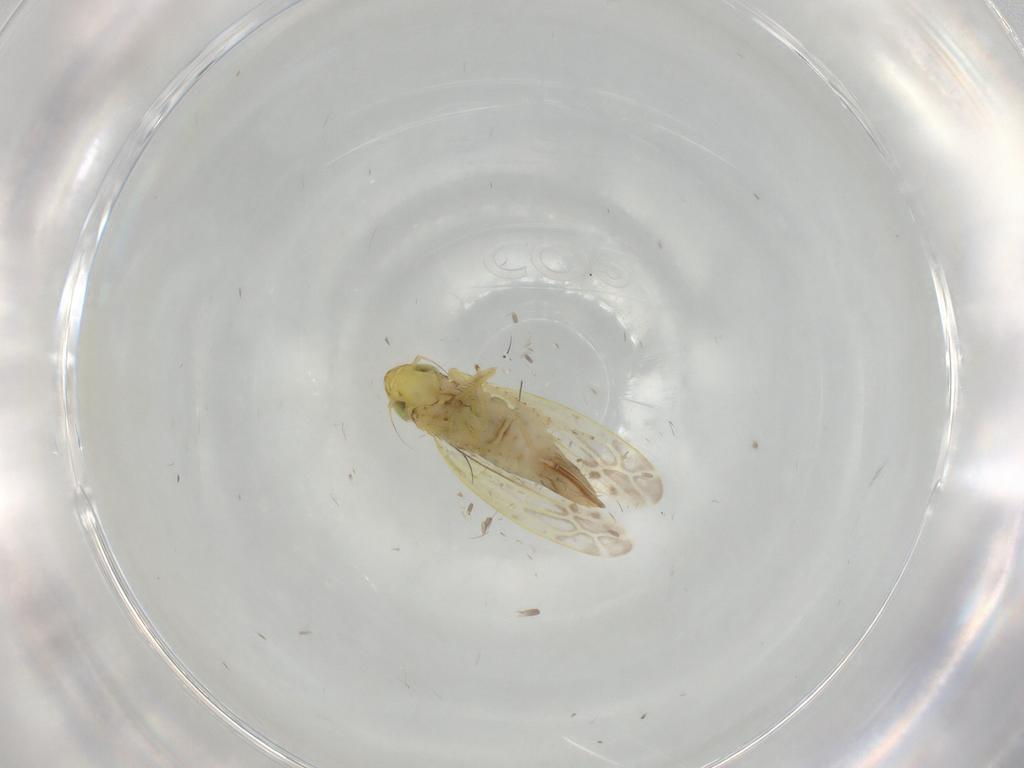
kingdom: Animalia
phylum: Arthropoda
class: Insecta
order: Hemiptera
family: Cicadellidae
